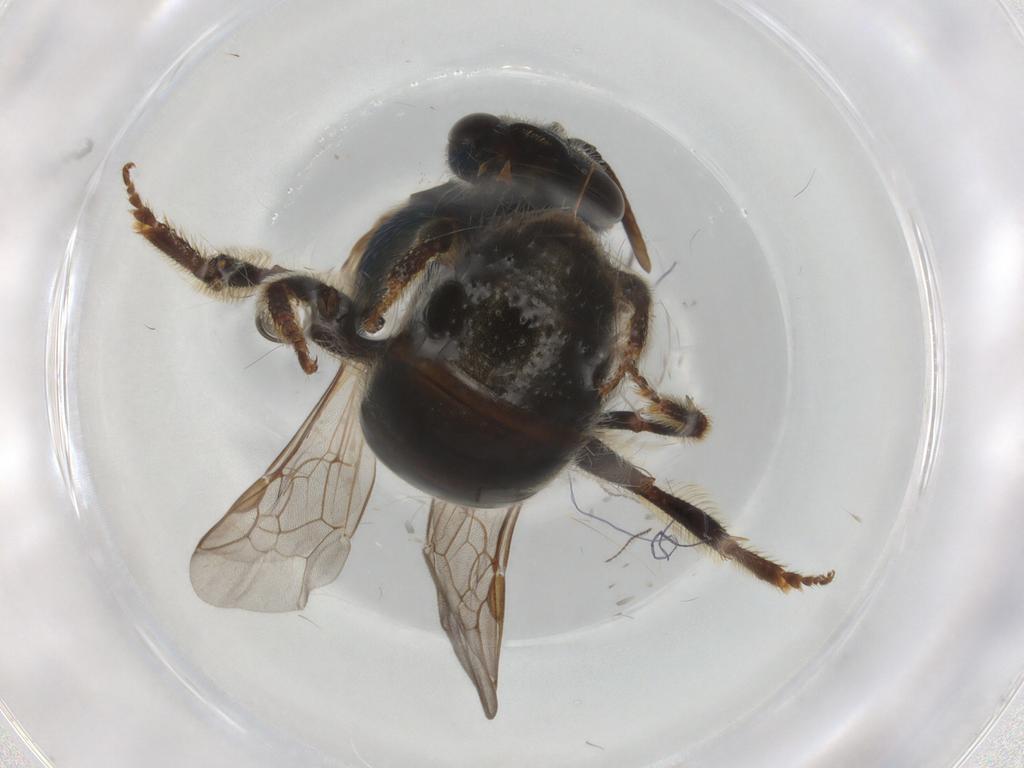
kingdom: Animalia
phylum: Arthropoda
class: Insecta
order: Hymenoptera
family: Halictidae
